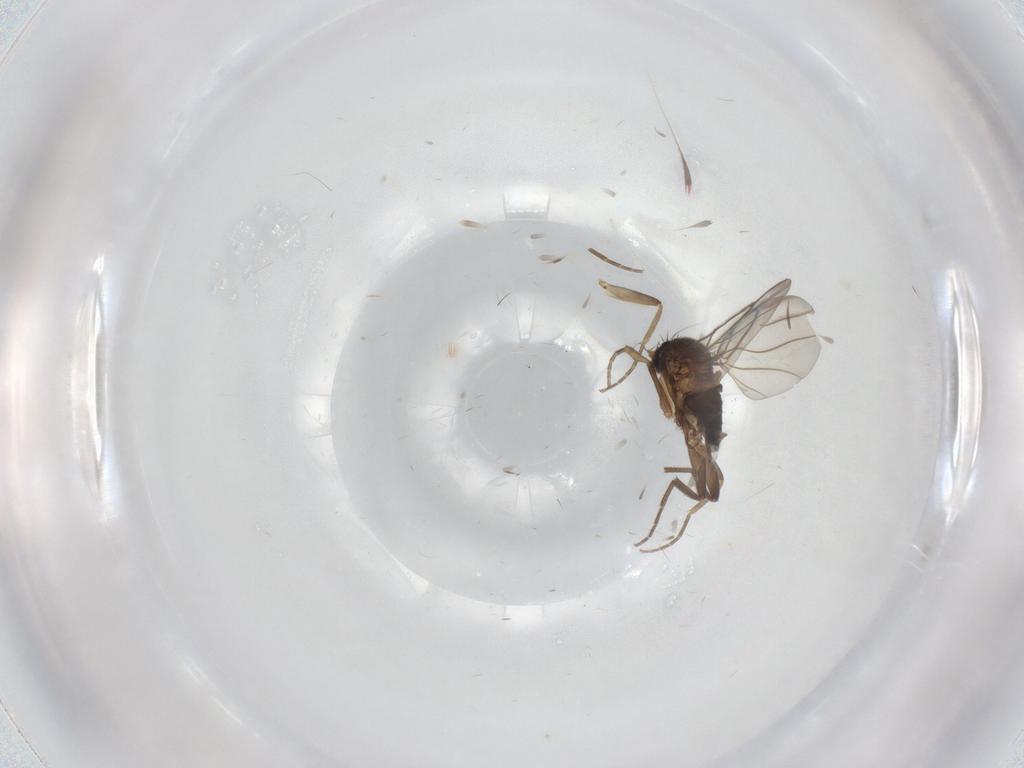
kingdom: Animalia
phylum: Arthropoda
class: Insecta
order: Diptera
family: Cecidomyiidae
